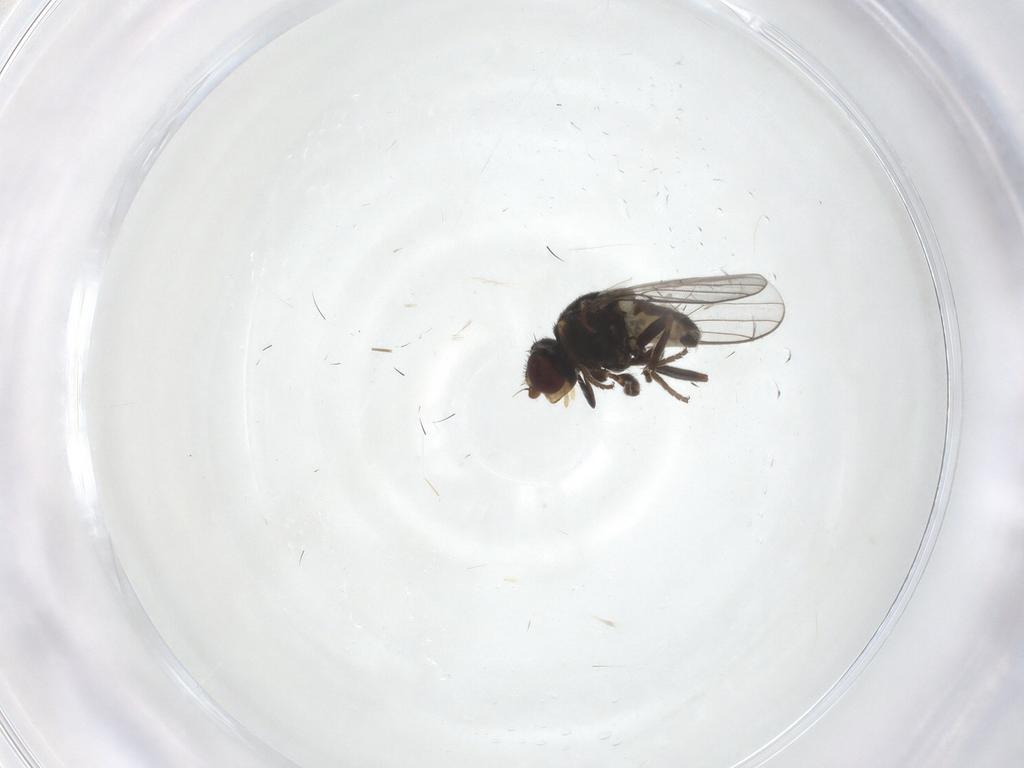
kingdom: Animalia
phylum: Arthropoda
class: Insecta
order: Diptera
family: Chloropidae
